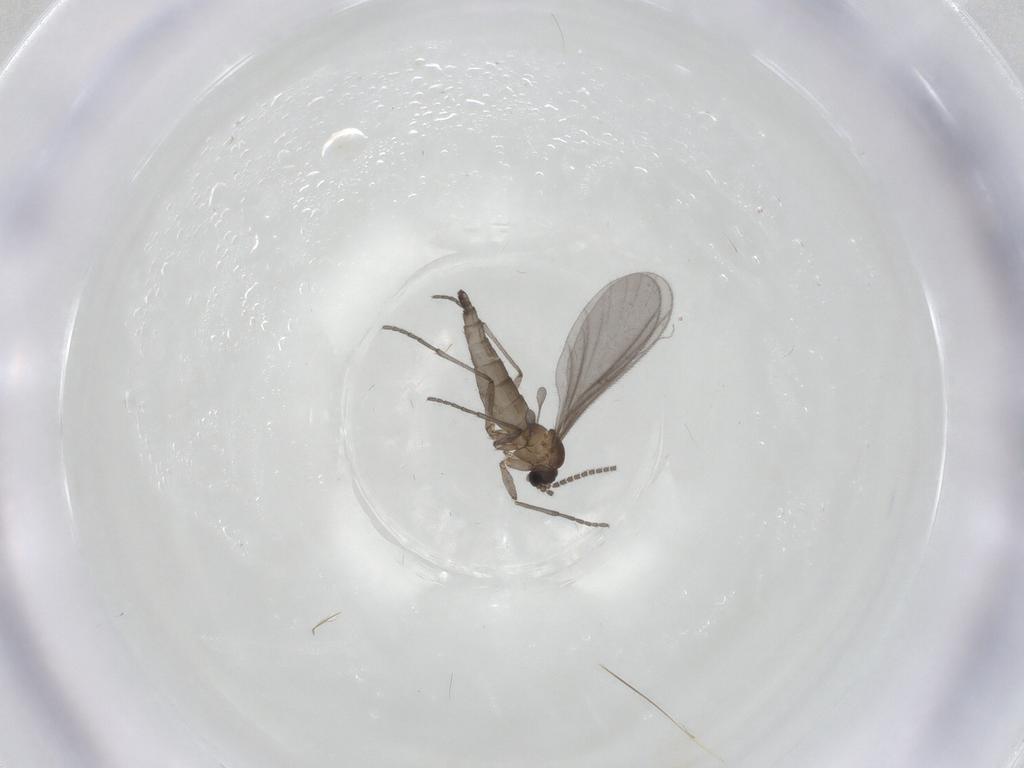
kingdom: Animalia
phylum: Arthropoda
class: Insecta
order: Diptera
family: Sciaridae
